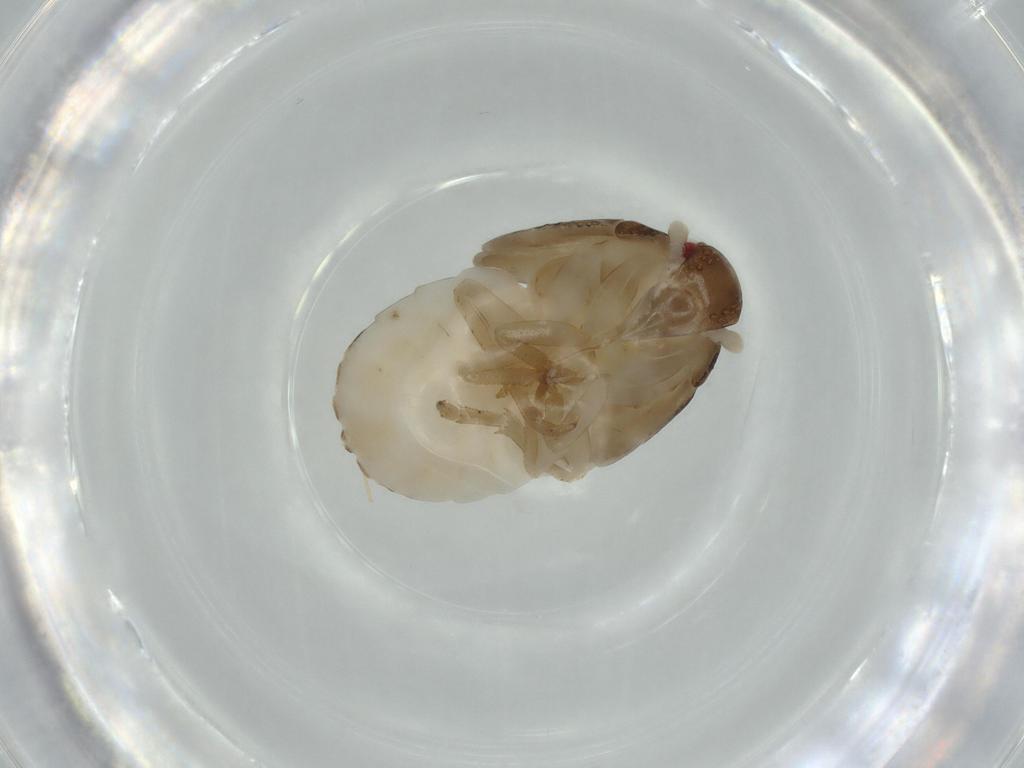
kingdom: Animalia
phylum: Arthropoda
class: Insecta
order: Hemiptera
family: Cixiidae
